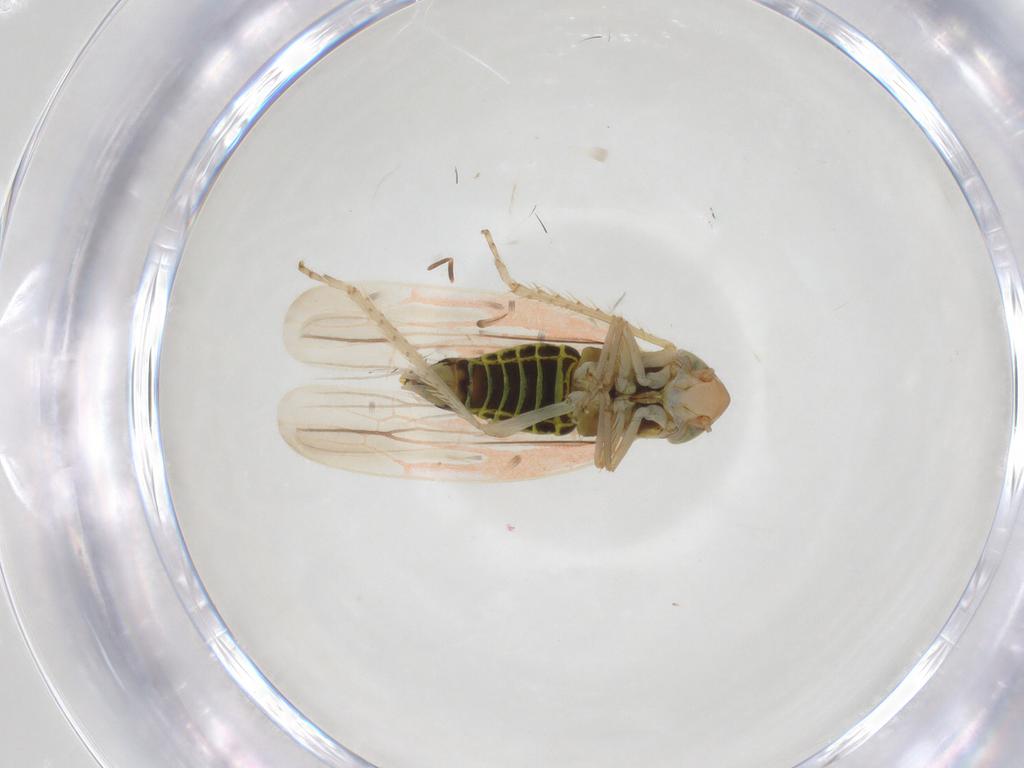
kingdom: Animalia
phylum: Arthropoda
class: Insecta
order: Hemiptera
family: Cicadellidae
